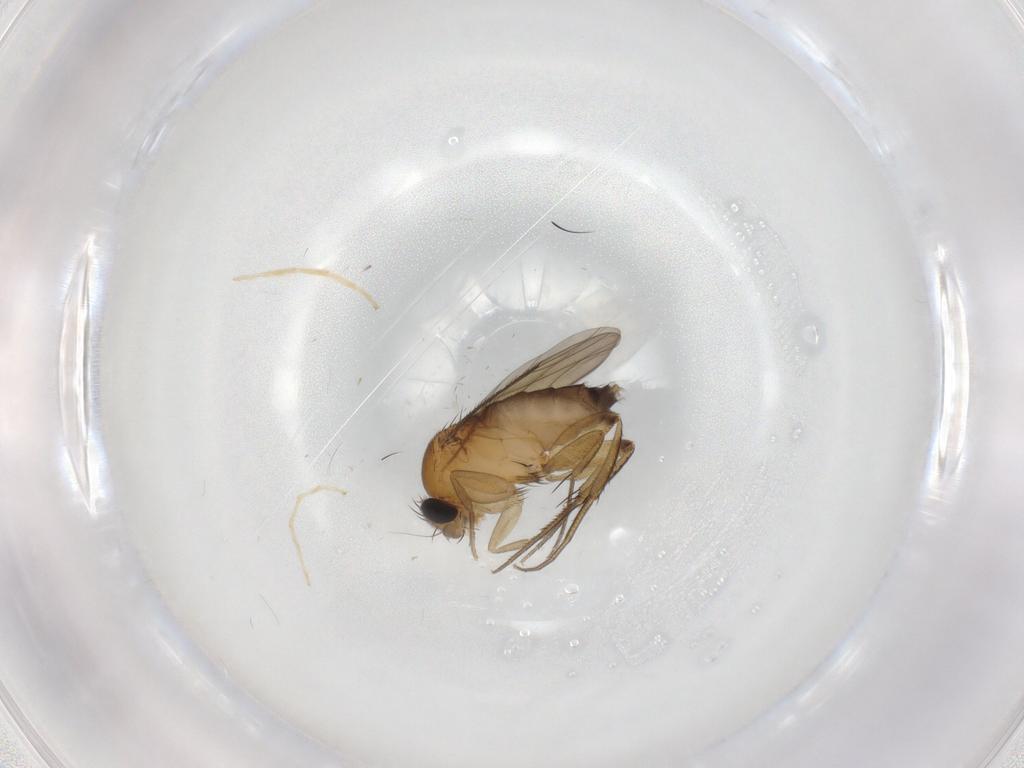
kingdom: Animalia
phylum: Arthropoda
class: Insecta
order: Diptera
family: Phoridae
